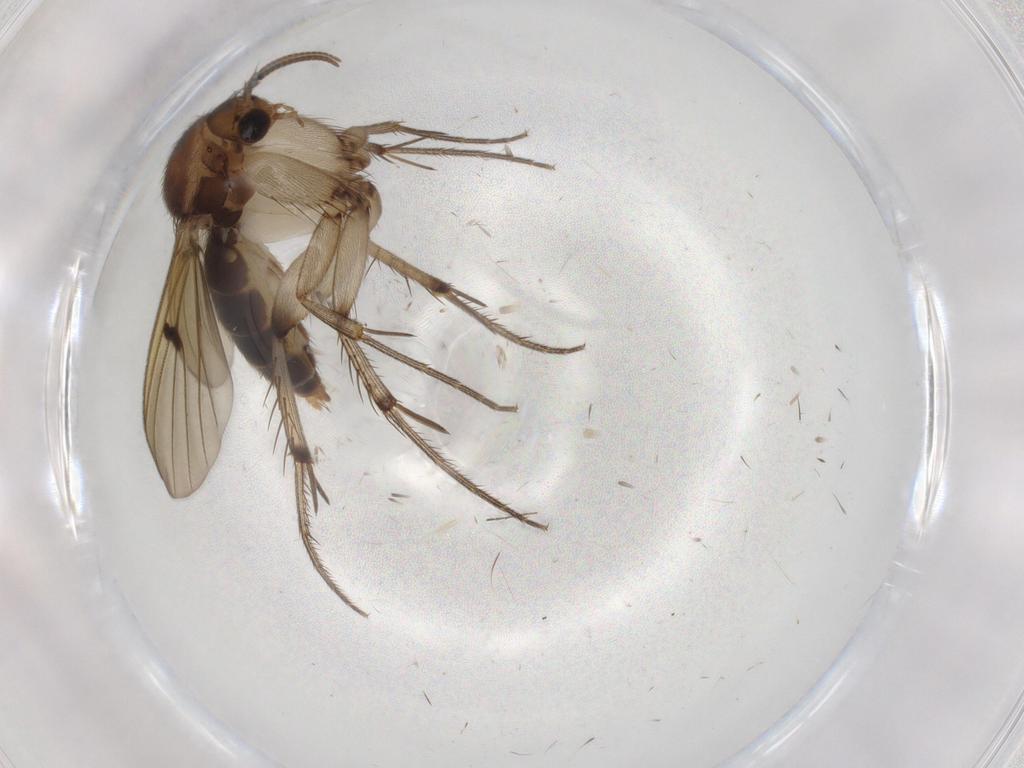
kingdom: Animalia
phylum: Arthropoda
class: Insecta
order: Diptera
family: Mycetophilidae
